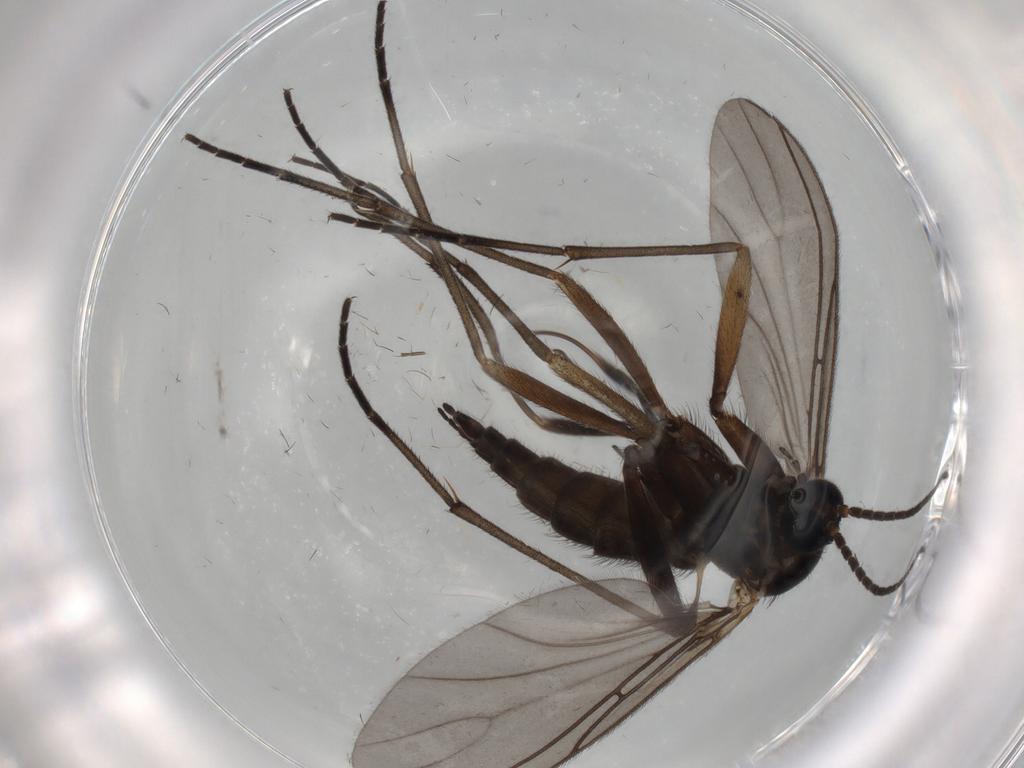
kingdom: Animalia
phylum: Arthropoda
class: Insecta
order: Diptera
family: Sciaridae
